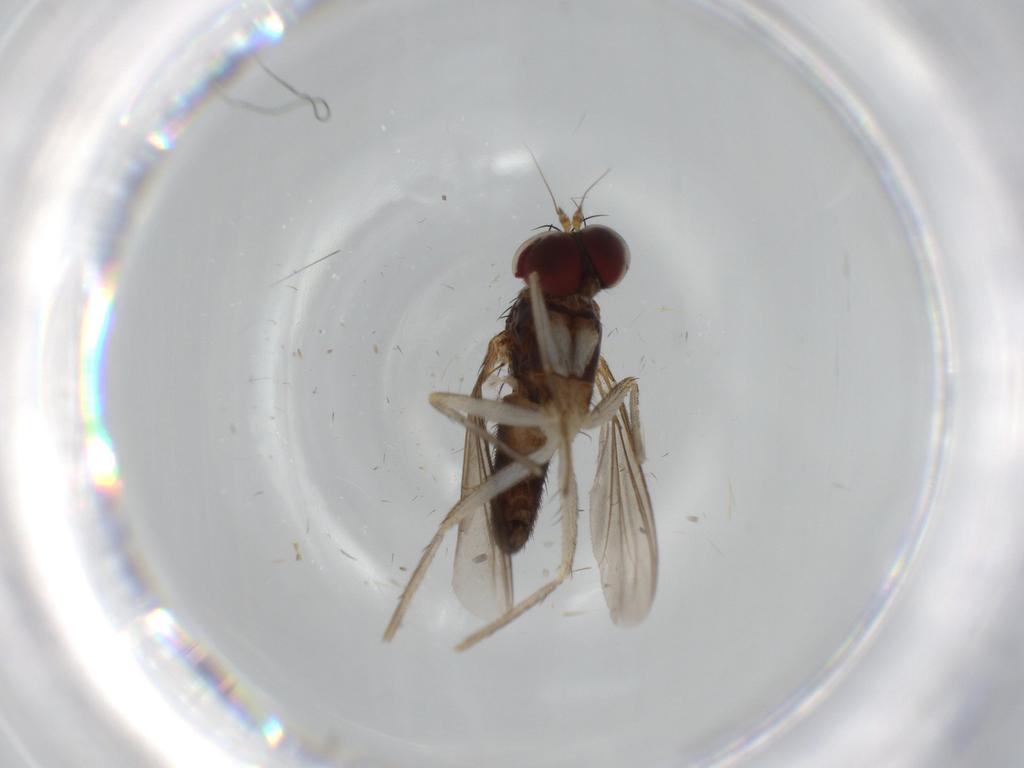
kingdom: Animalia
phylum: Arthropoda
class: Insecta
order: Diptera
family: Dolichopodidae
